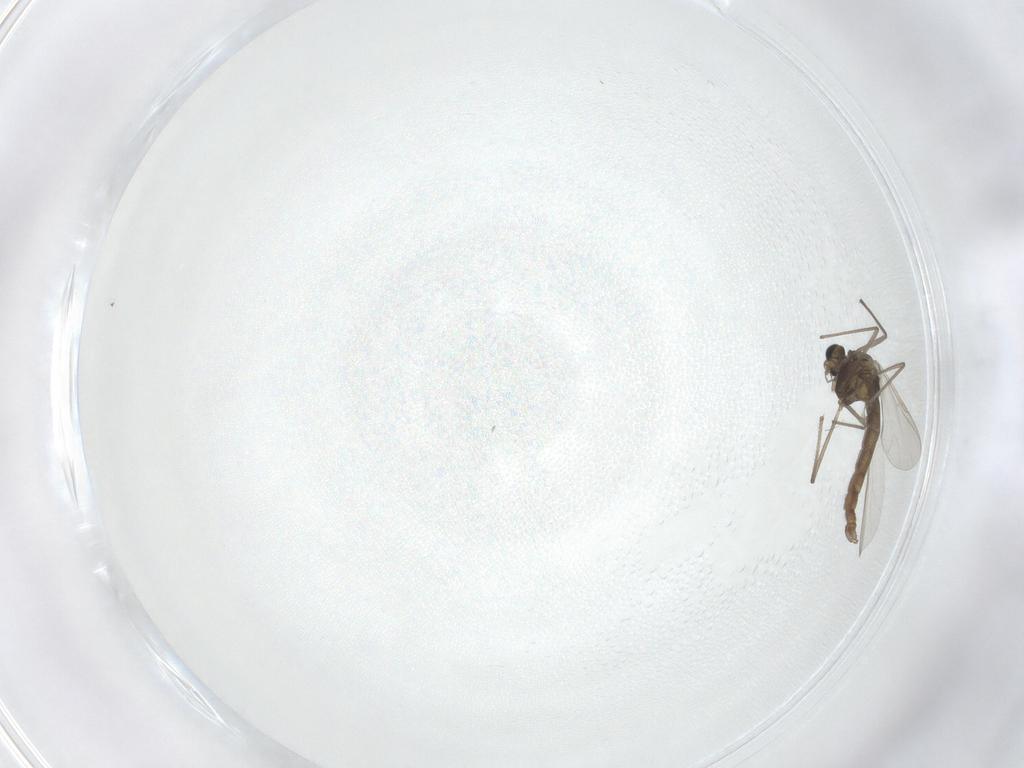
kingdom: Animalia
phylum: Arthropoda
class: Insecta
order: Diptera
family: Chironomidae
